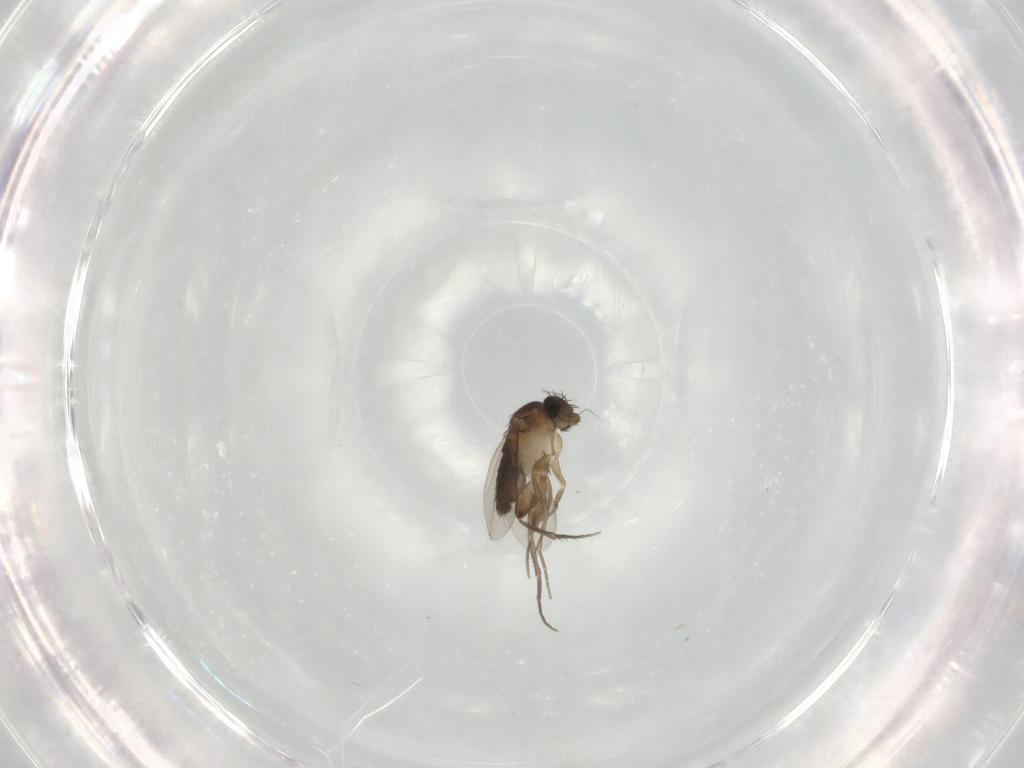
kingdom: Animalia
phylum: Arthropoda
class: Insecta
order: Diptera
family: Phoridae
